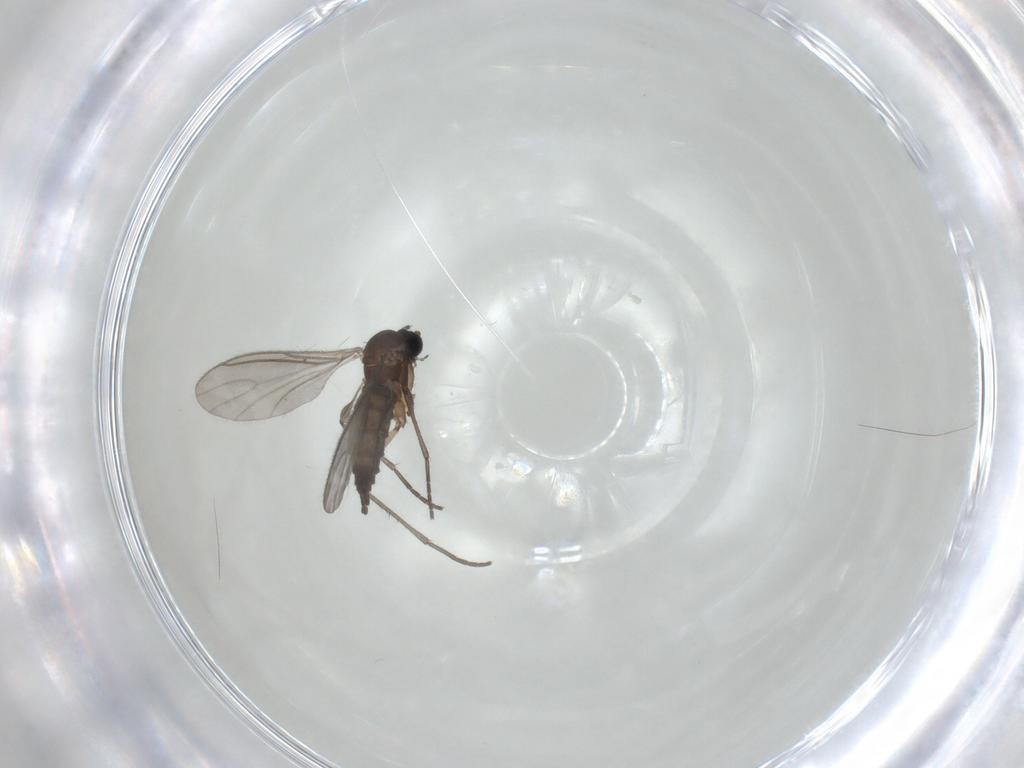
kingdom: Animalia
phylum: Arthropoda
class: Insecta
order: Diptera
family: Sciaridae
